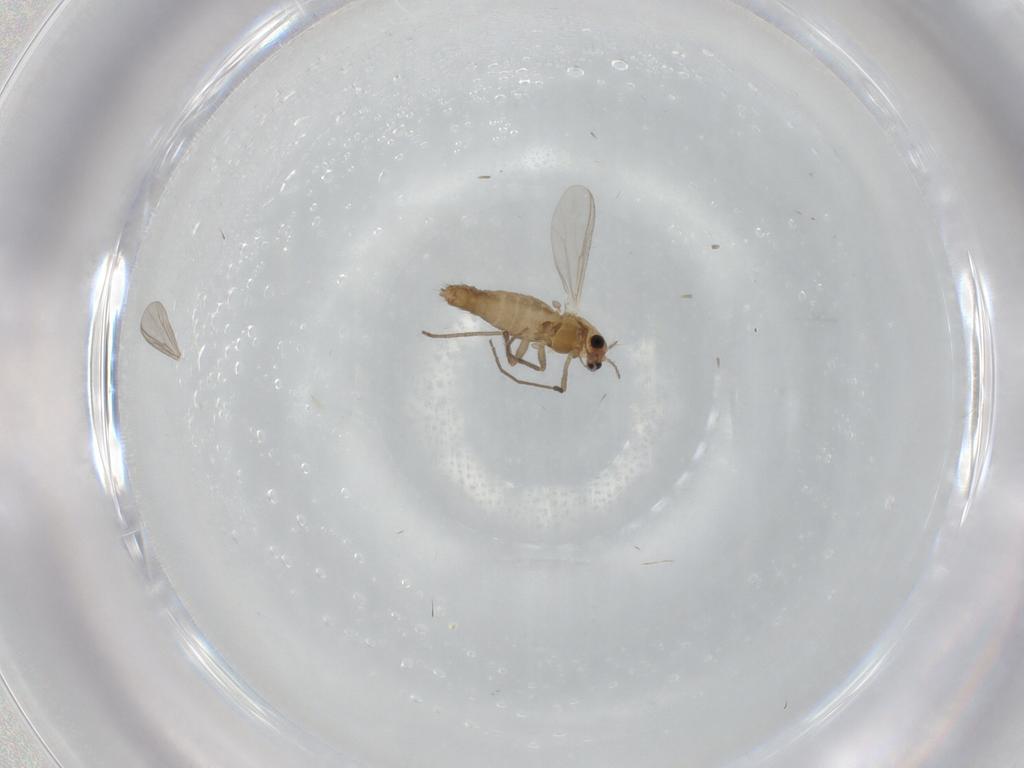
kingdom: Animalia
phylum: Arthropoda
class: Insecta
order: Diptera
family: Chironomidae
